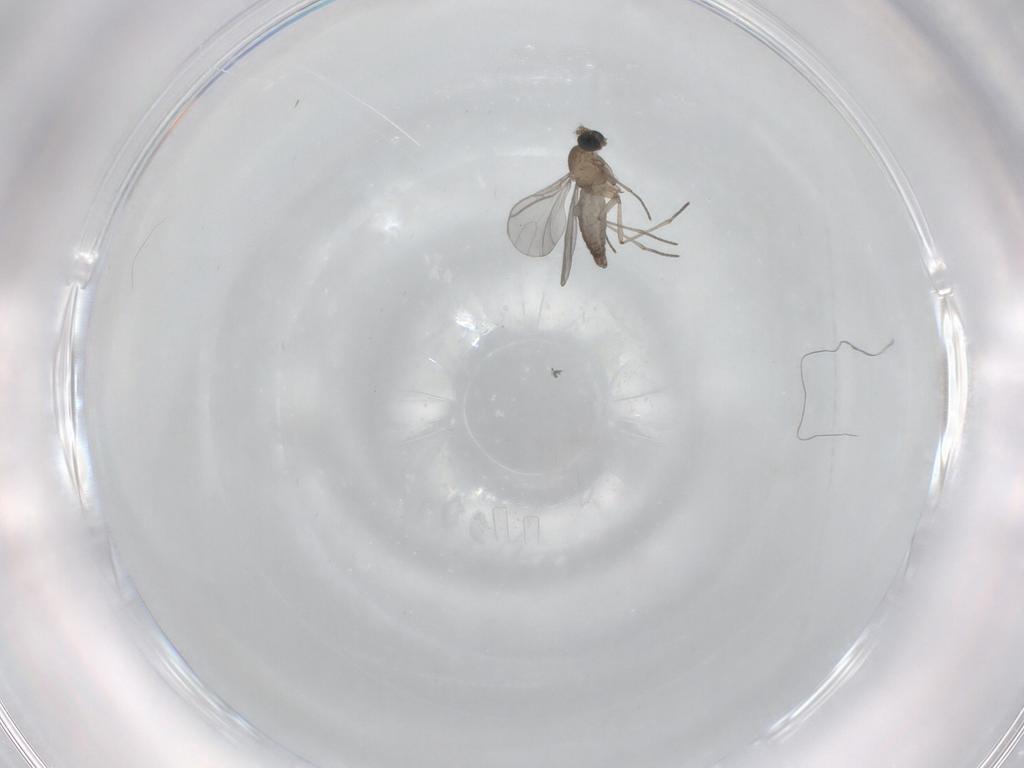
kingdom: Animalia
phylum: Arthropoda
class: Insecta
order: Diptera
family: Sciaridae
